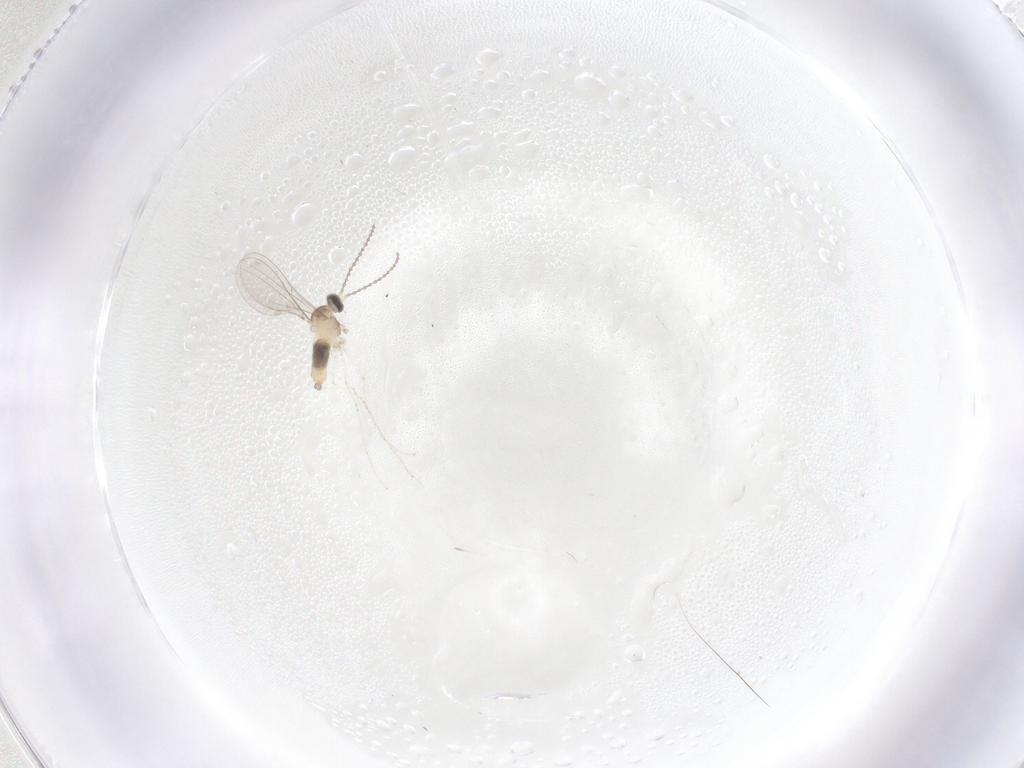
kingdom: Animalia
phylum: Arthropoda
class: Insecta
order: Diptera
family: Cecidomyiidae
